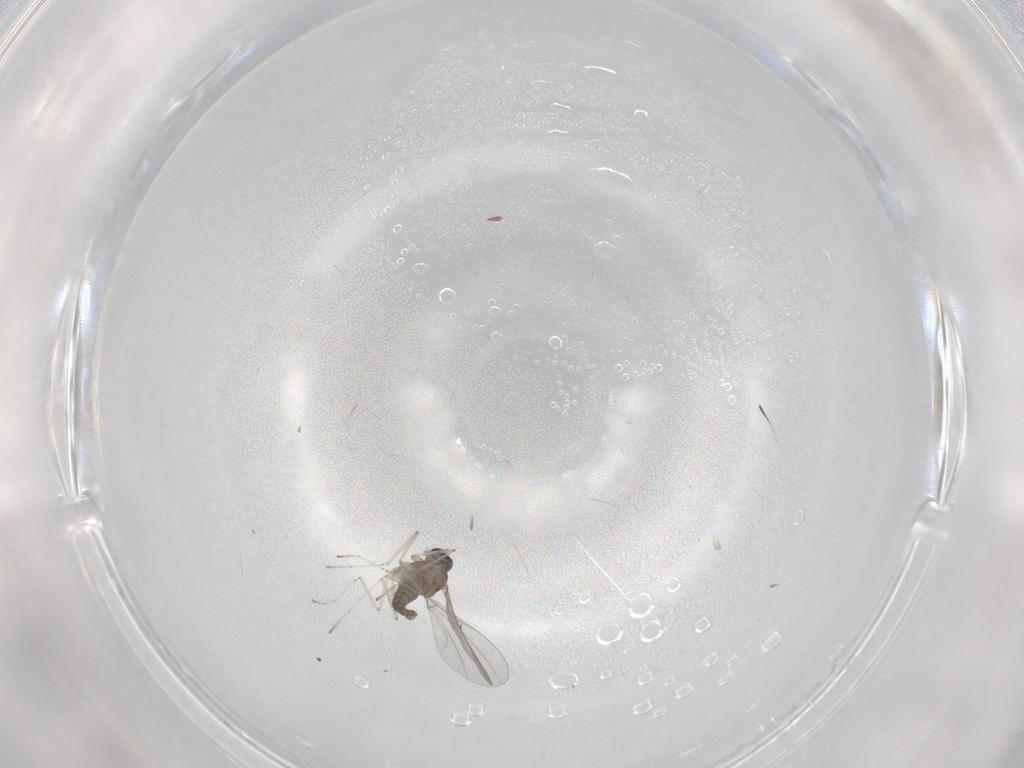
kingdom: Animalia
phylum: Arthropoda
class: Insecta
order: Diptera
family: Cecidomyiidae
